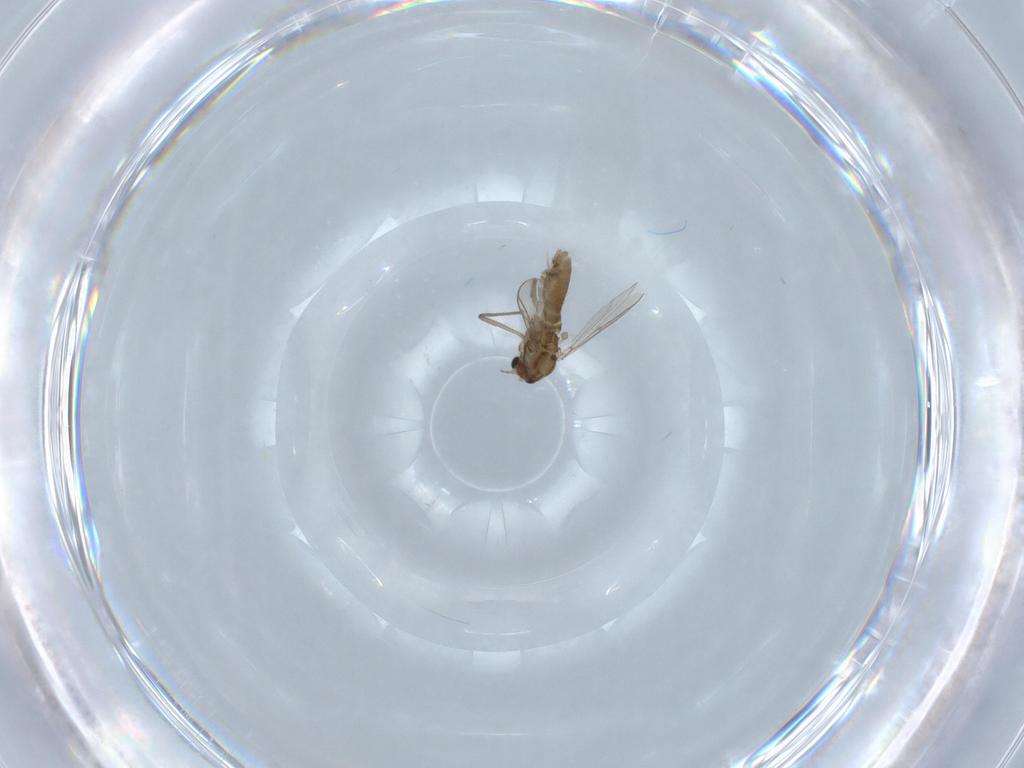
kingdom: Animalia
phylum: Arthropoda
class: Insecta
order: Diptera
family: Chironomidae
